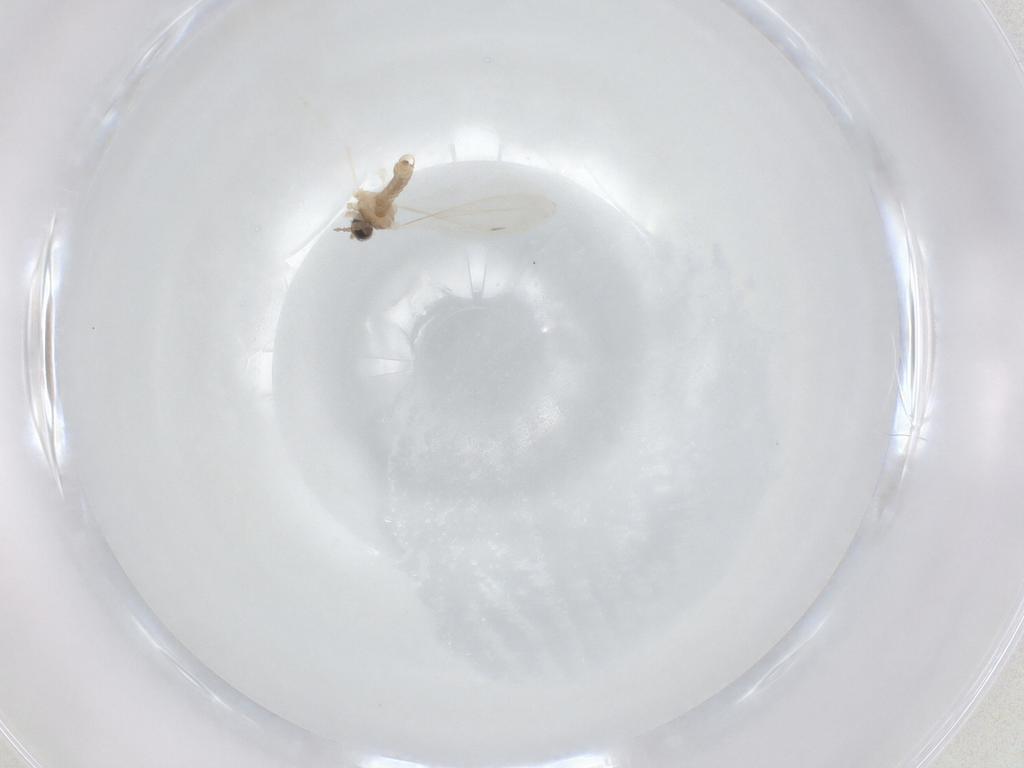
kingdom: Animalia
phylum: Arthropoda
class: Insecta
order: Diptera
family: Cecidomyiidae
